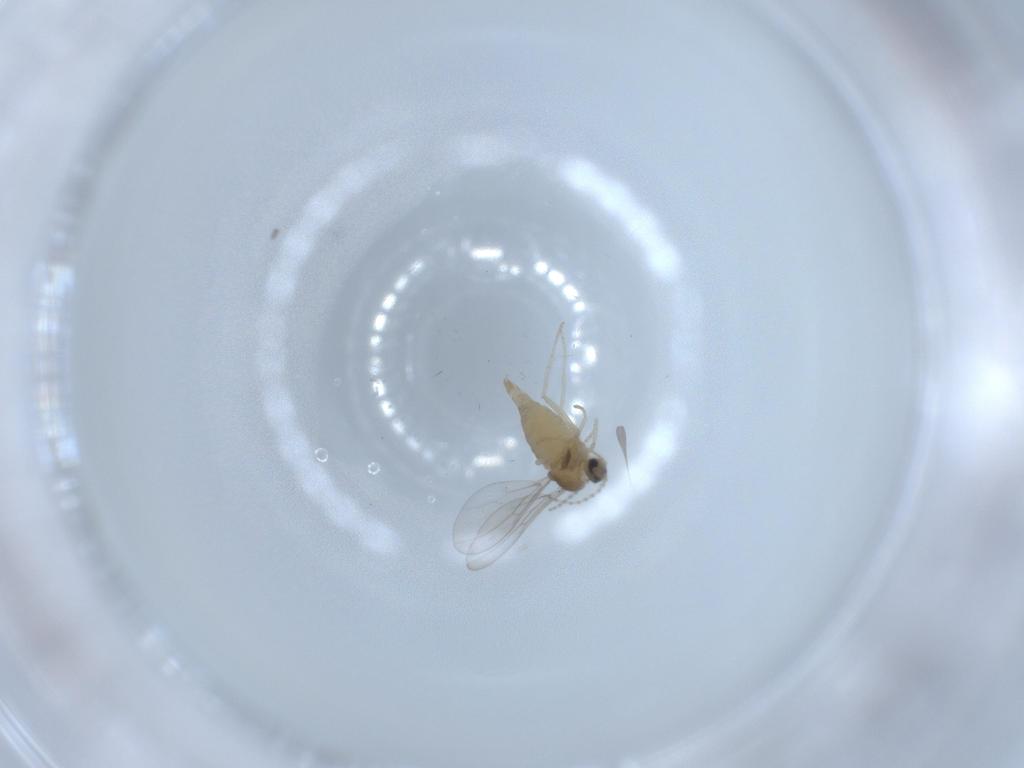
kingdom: Animalia
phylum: Arthropoda
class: Insecta
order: Diptera
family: Cecidomyiidae
